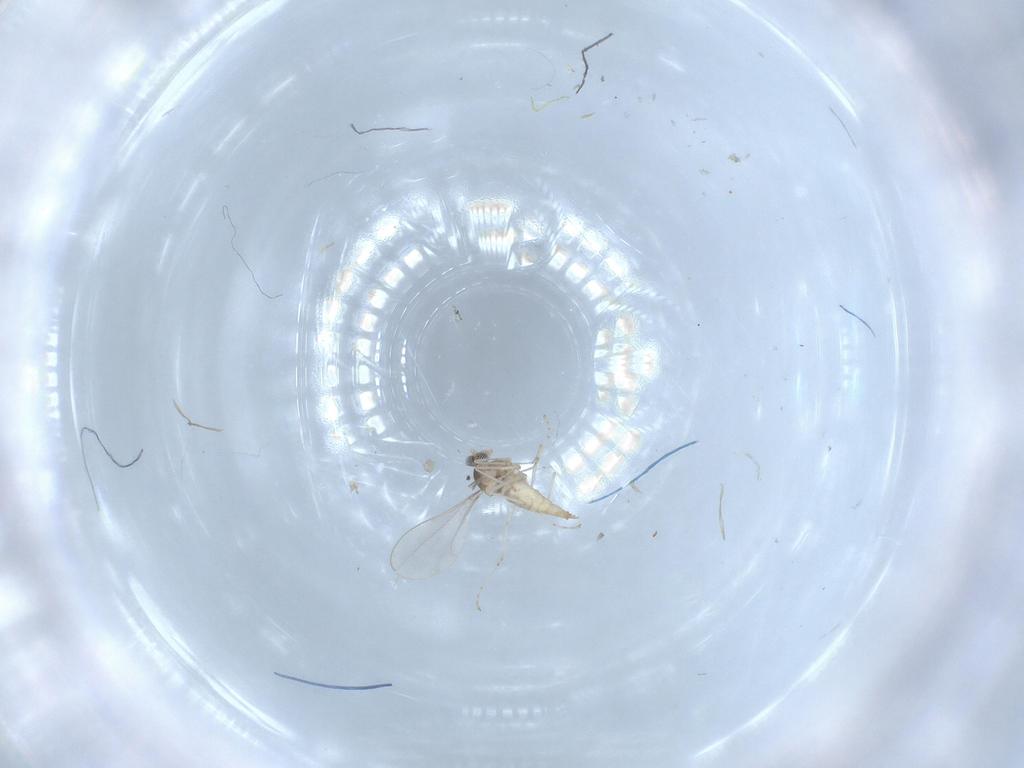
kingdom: Animalia
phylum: Arthropoda
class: Insecta
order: Diptera
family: Cecidomyiidae
